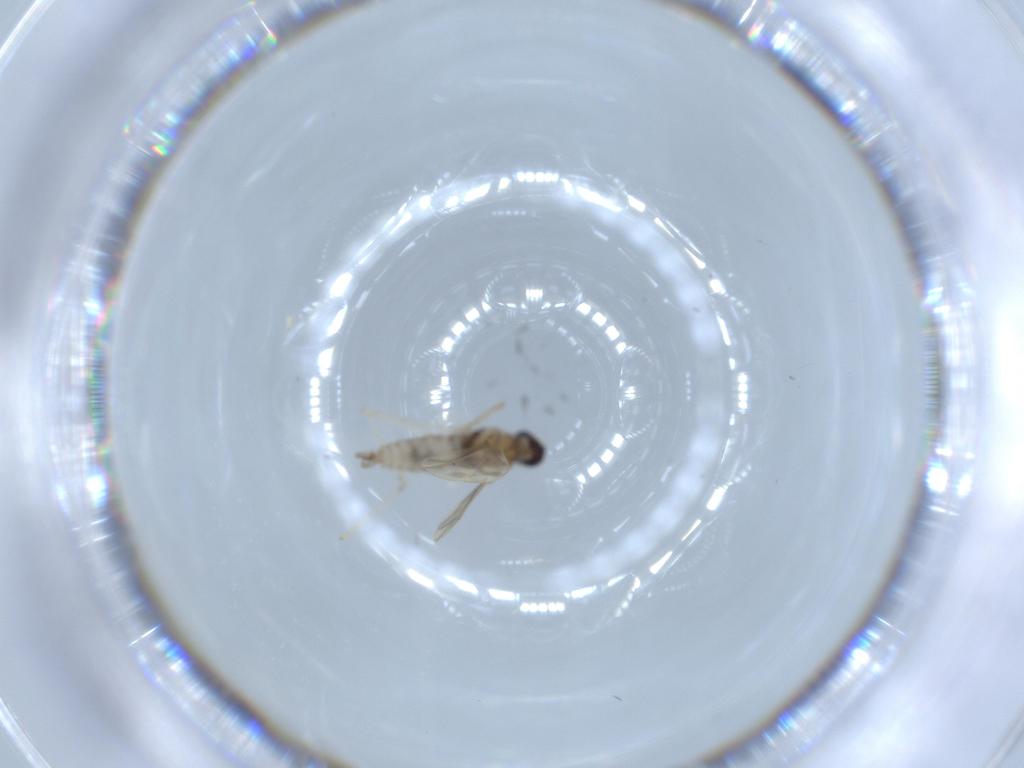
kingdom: Animalia
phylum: Arthropoda
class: Insecta
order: Diptera
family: Cecidomyiidae
